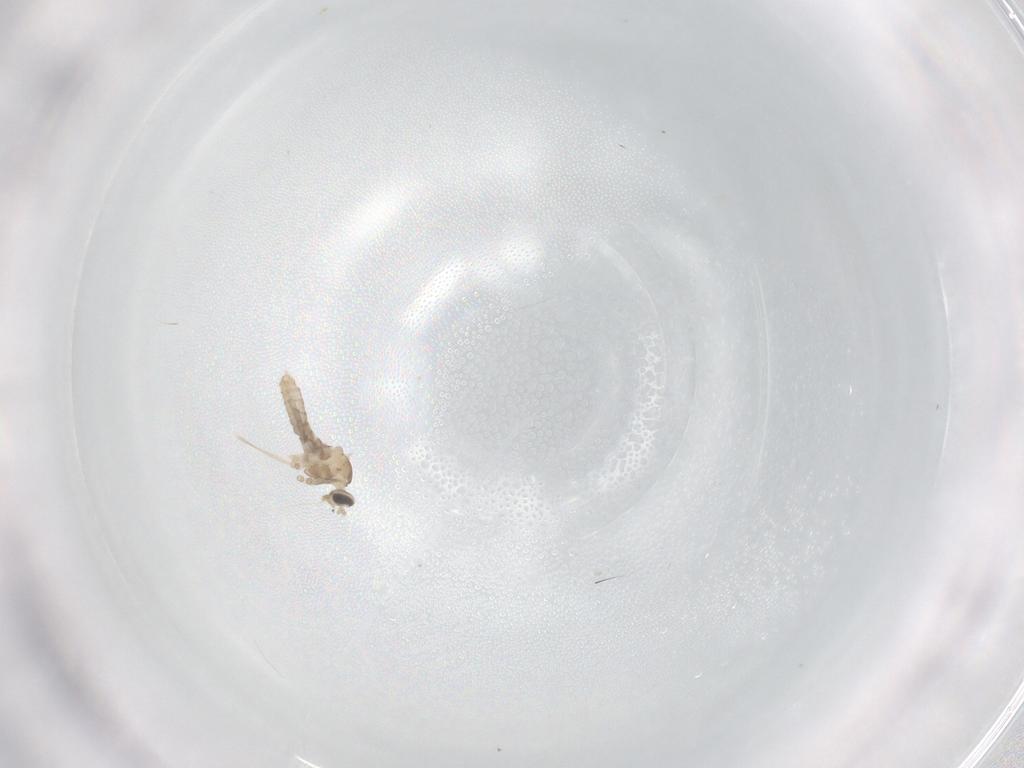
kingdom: Animalia
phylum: Arthropoda
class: Insecta
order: Diptera
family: Cecidomyiidae
